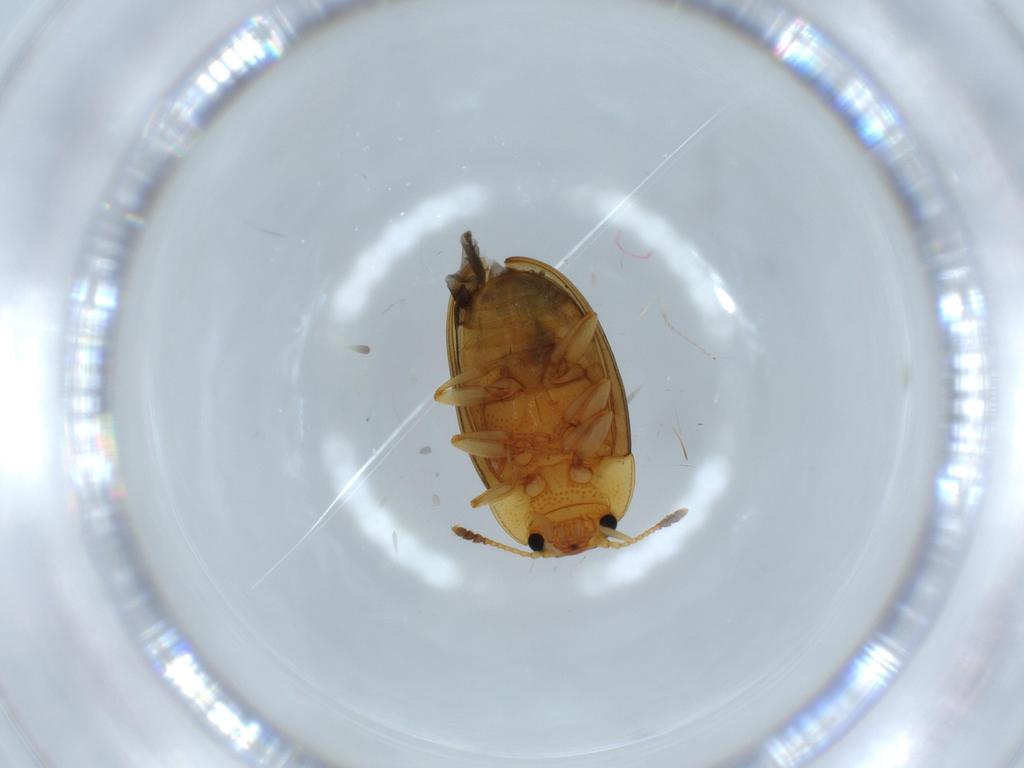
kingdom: Animalia
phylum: Arthropoda
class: Insecta
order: Coleoptera
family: Erotylidae
